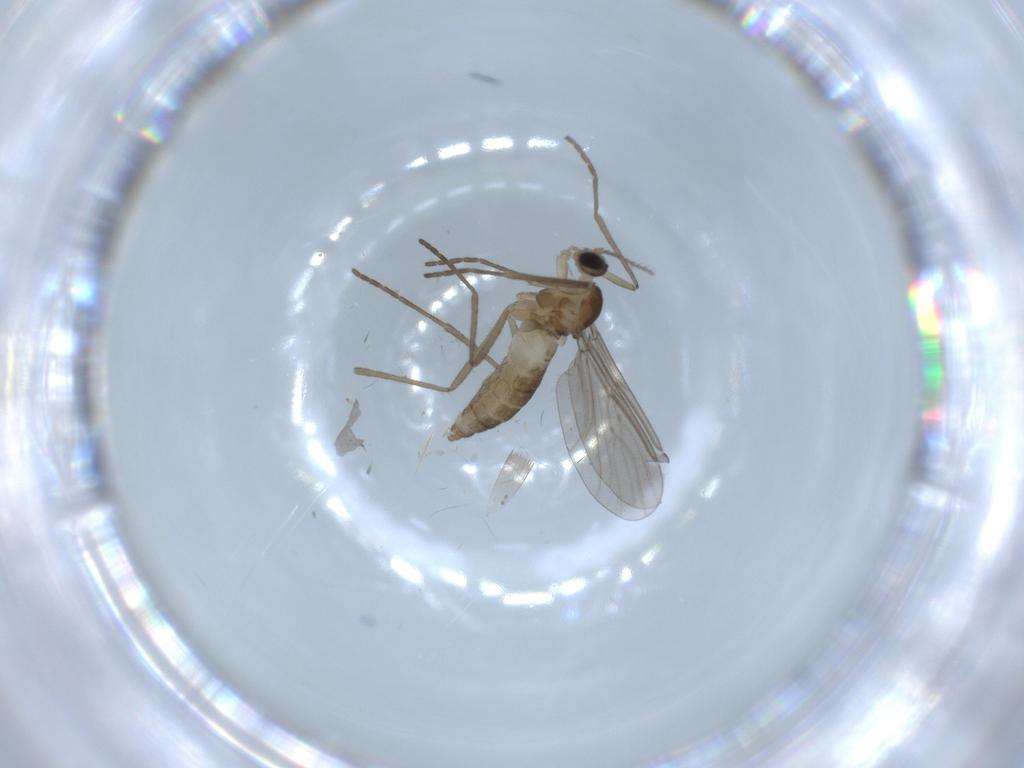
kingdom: Animalia
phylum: Arthropoda
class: Insecta
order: Diptera
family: Cecidomyiidae
